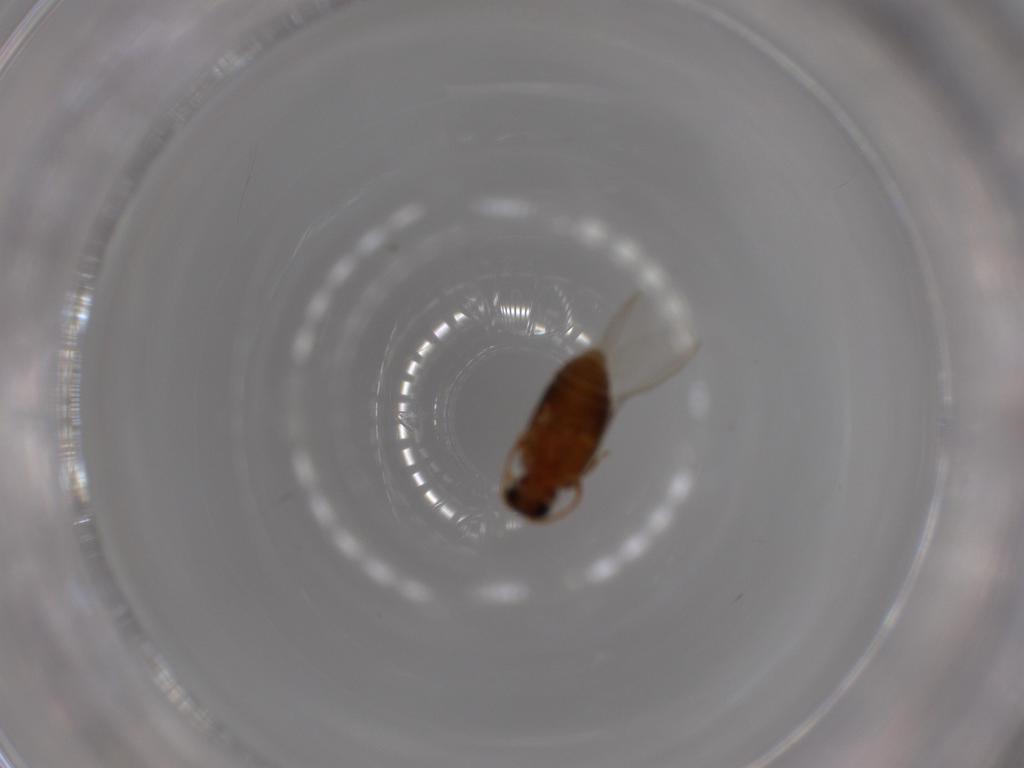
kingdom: Animalia
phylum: Arthropoda
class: Insecta
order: Coleoptera
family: Aderidae
